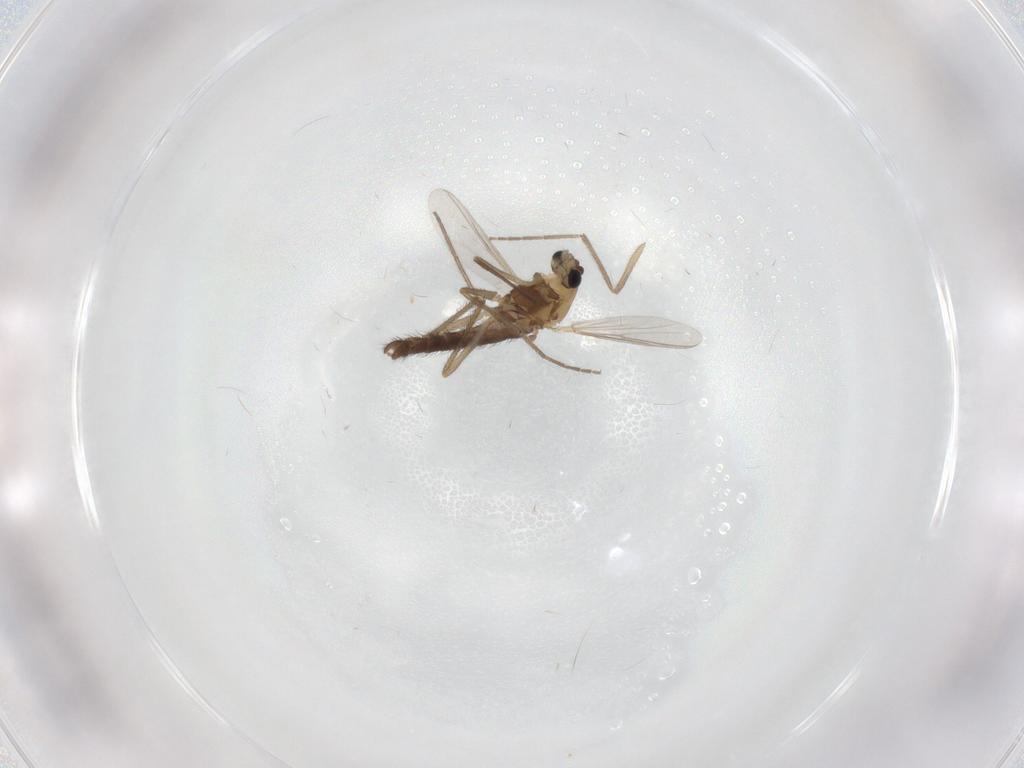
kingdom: Animalia
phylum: Arthropoda
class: Insecta
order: Diptera
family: Chironomidae
